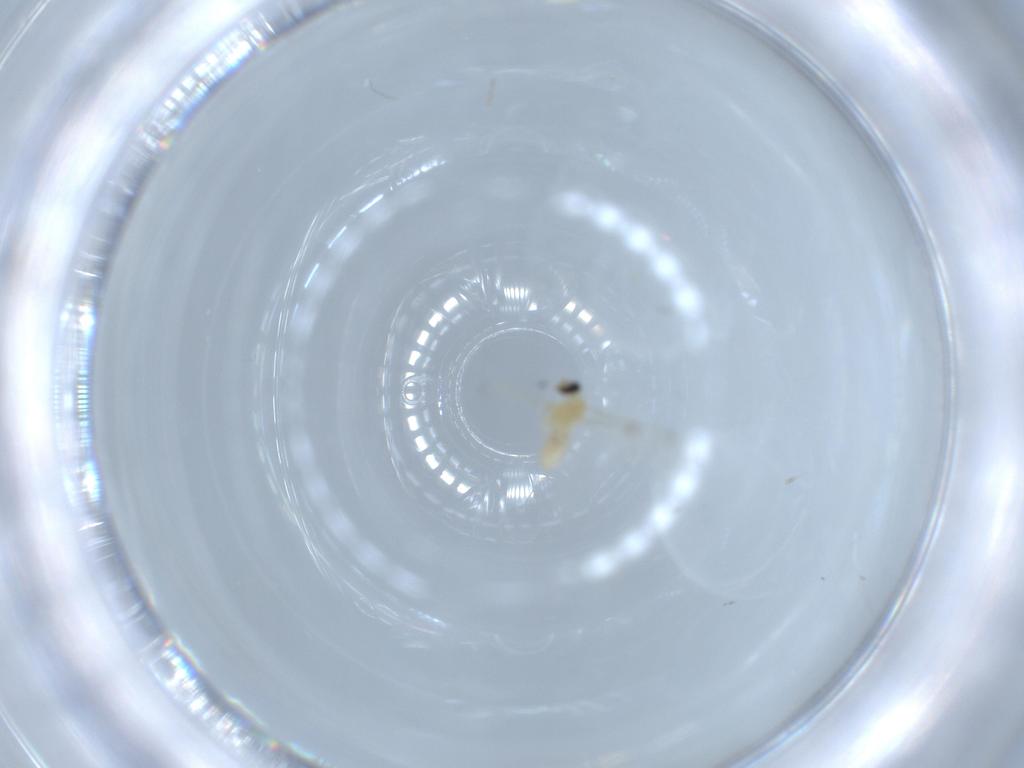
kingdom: Animalia
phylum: Arthropoda
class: Insecta
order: Diptera
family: Cecidomyiidae
